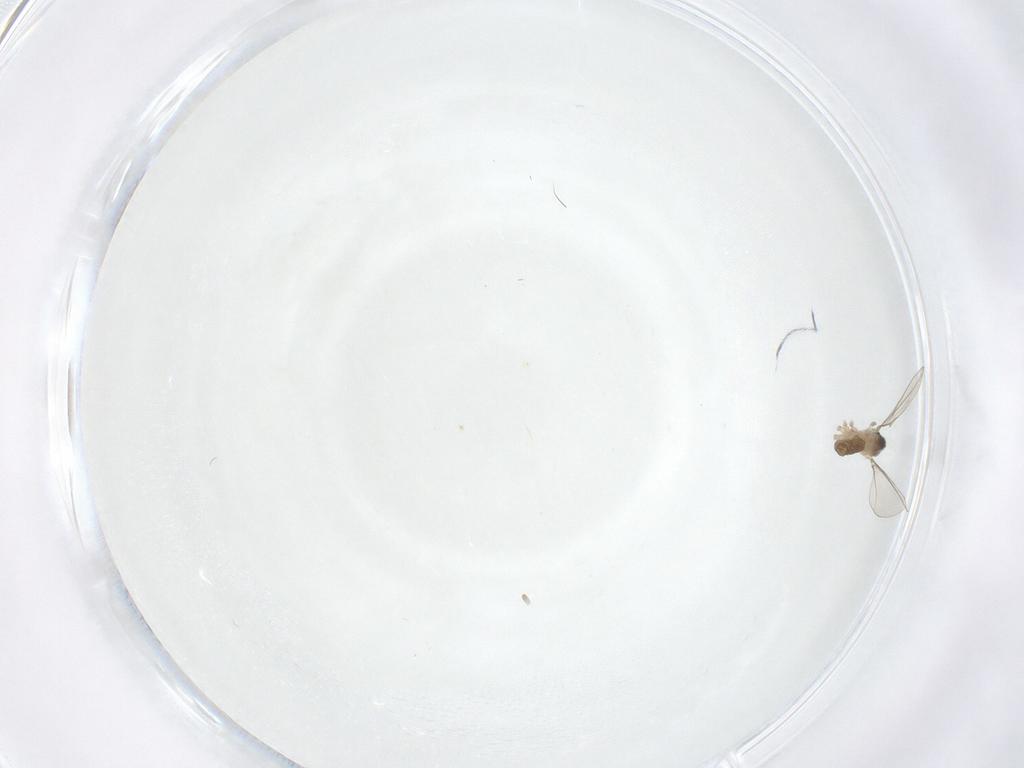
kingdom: Animalia
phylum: Arthropoda
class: Insecta
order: Diptera
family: Cecidomyiidae
